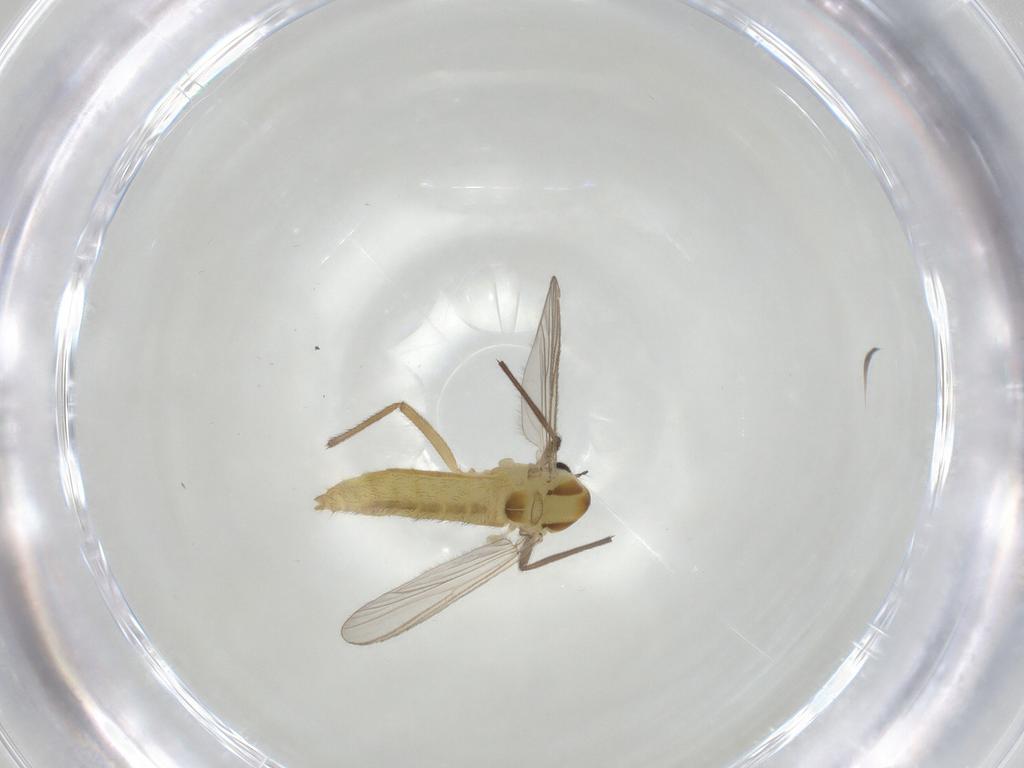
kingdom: Animalia
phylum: Arthropoda
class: Insecta
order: Diptera
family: Chironomidae
